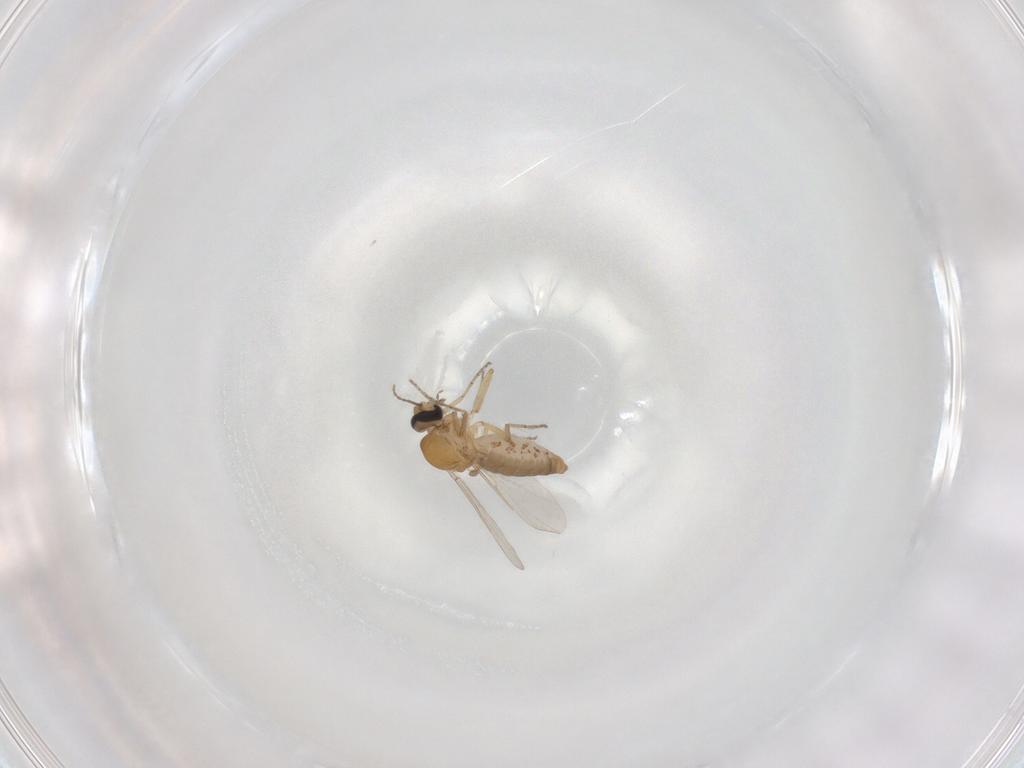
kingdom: Animalia
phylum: Arthropoda
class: Insecta
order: Diptera
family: Ceratopogonidae
